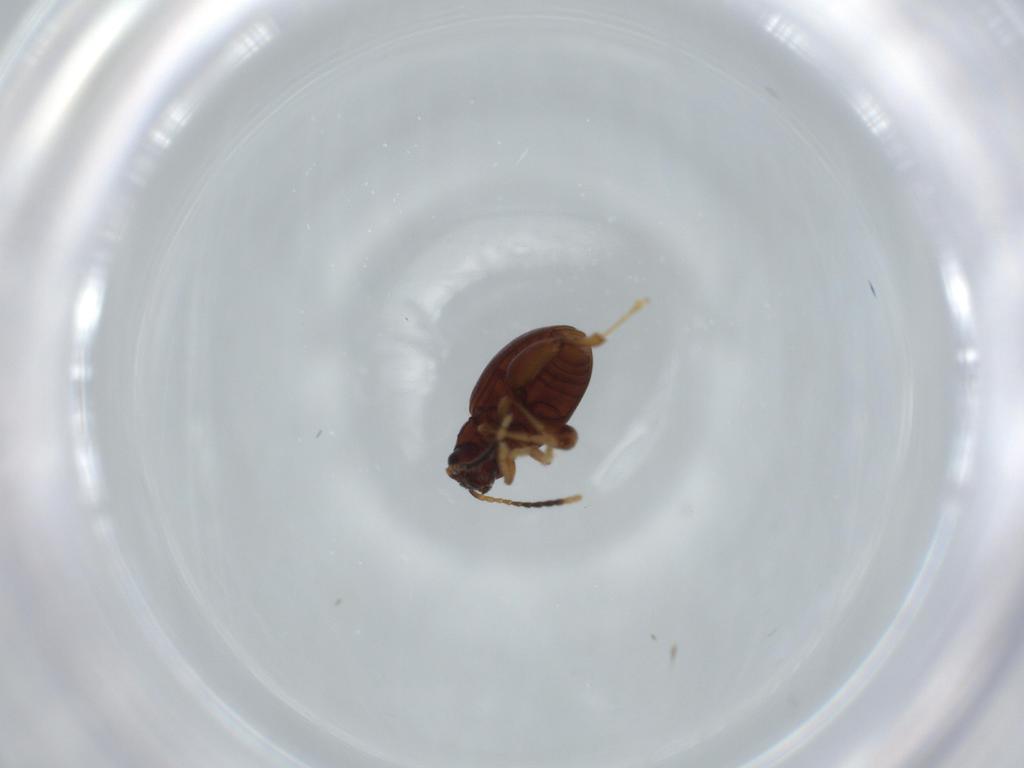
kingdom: Animalia
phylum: Arthropoda
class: Insecta
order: Coleoptera
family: Chrysomelidae
